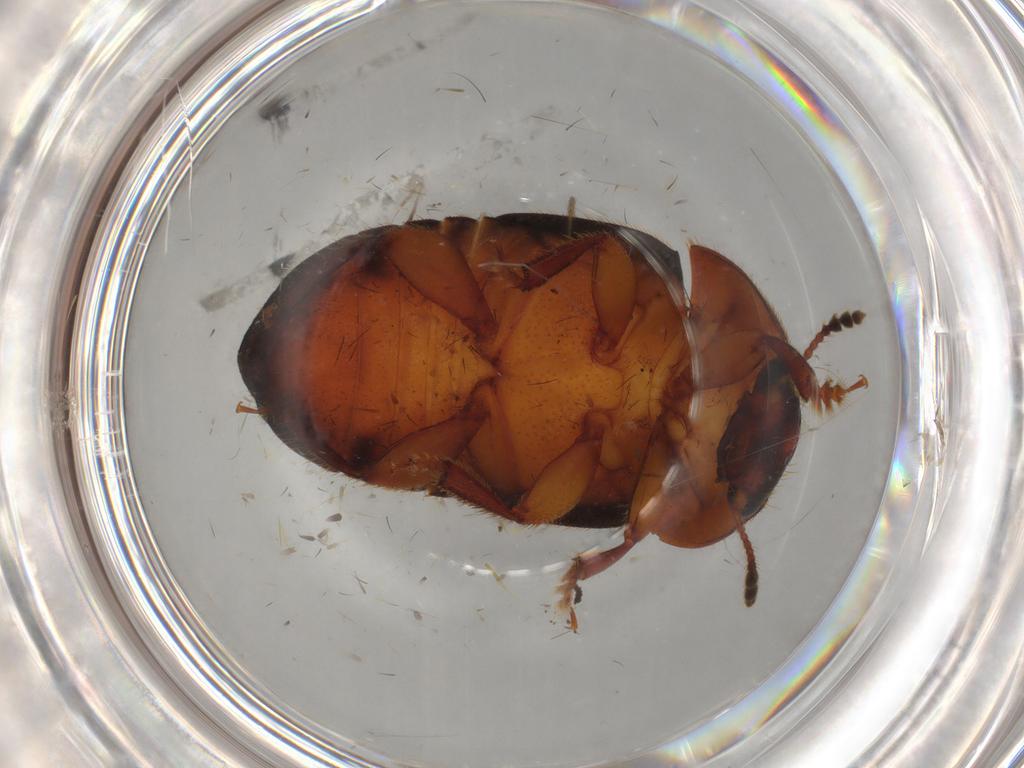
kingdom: Animalia
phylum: Arthropoda
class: Insecta
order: Coleoptera
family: Nitidulidae
